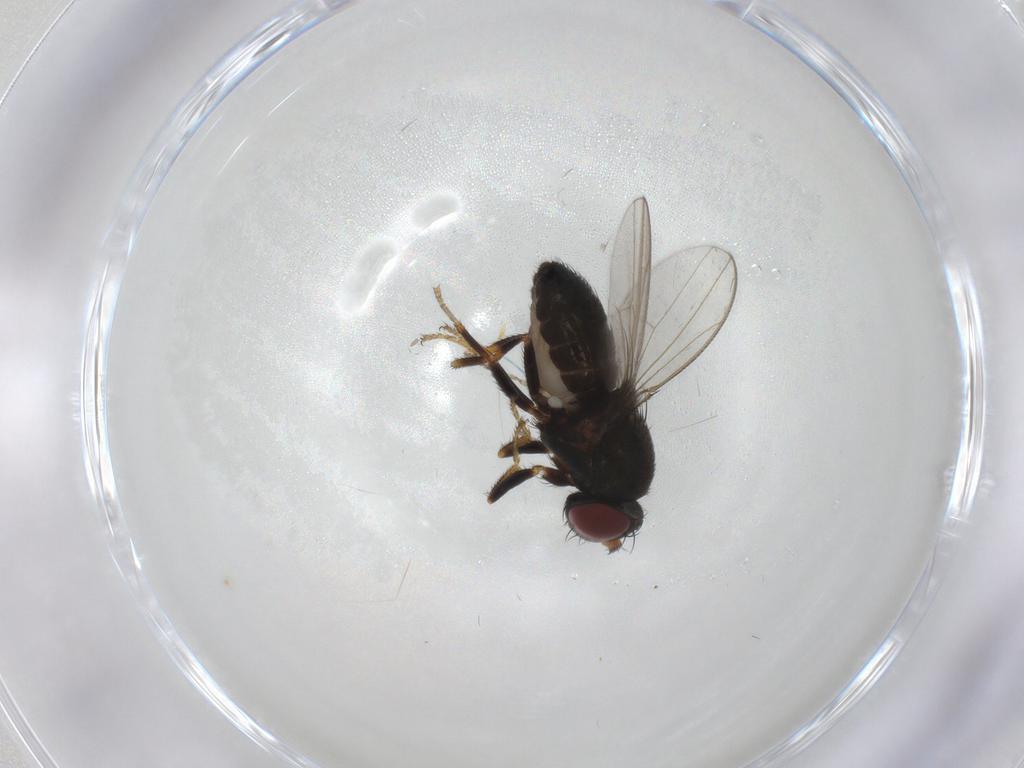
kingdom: Animalia
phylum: Arthropoda
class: Insecta
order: Diptera
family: Chironomidae
